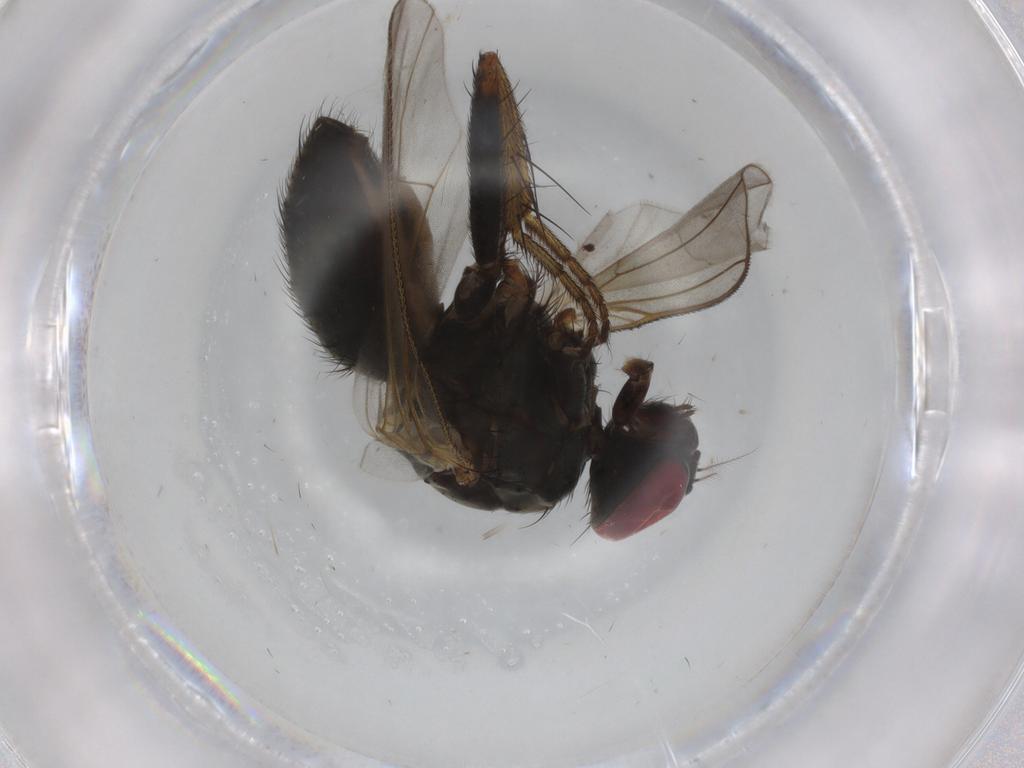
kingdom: Animalia
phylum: Arthropoda
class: Insecta
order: Diptera
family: Muscidae
